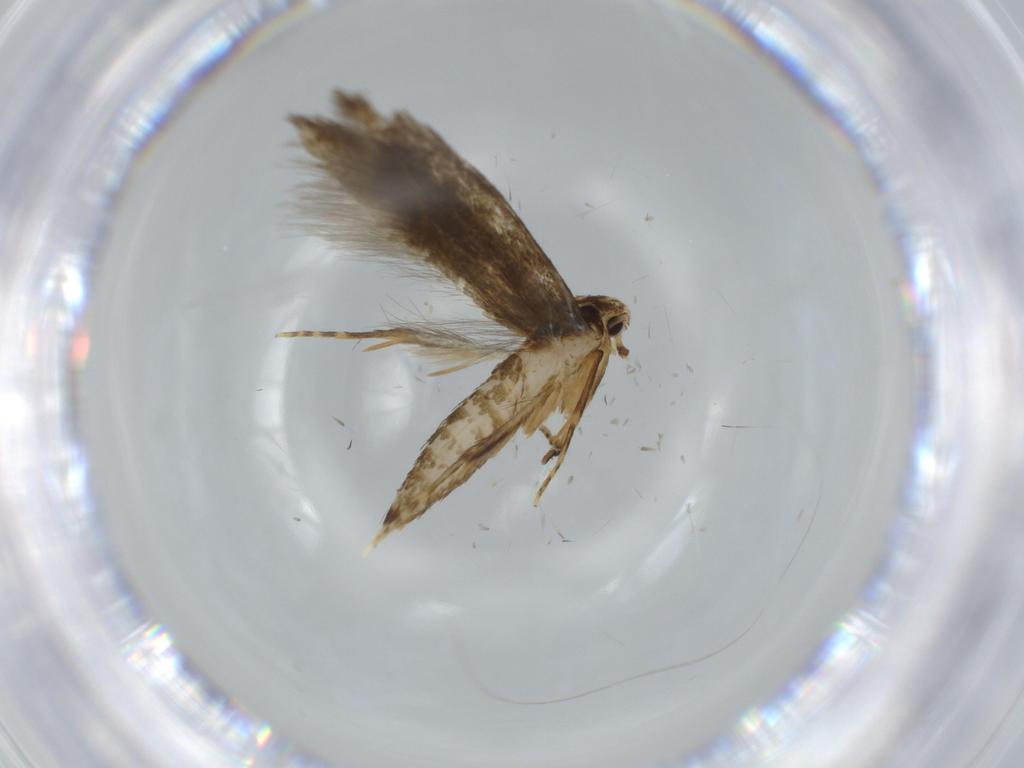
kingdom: Animalia
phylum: Arthropoda
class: Insecta
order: Lepidoptera
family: Tineidae
